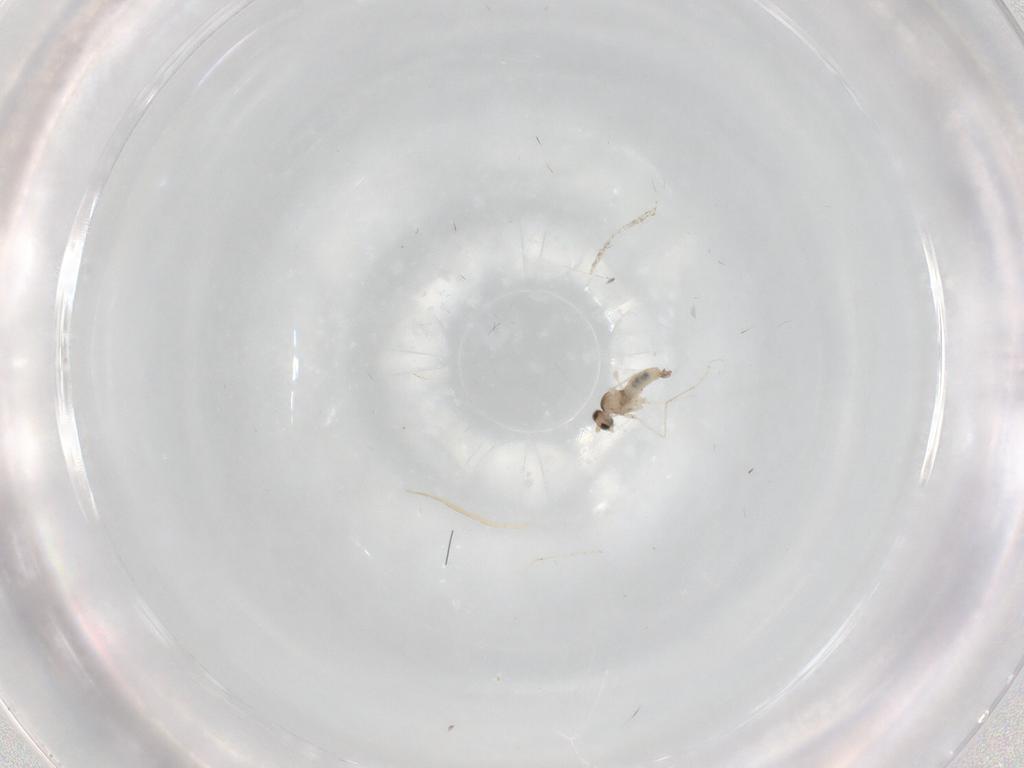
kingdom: Animalia
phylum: Arthropoda
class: Insecta
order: Diptera
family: Cecidomyiidae
